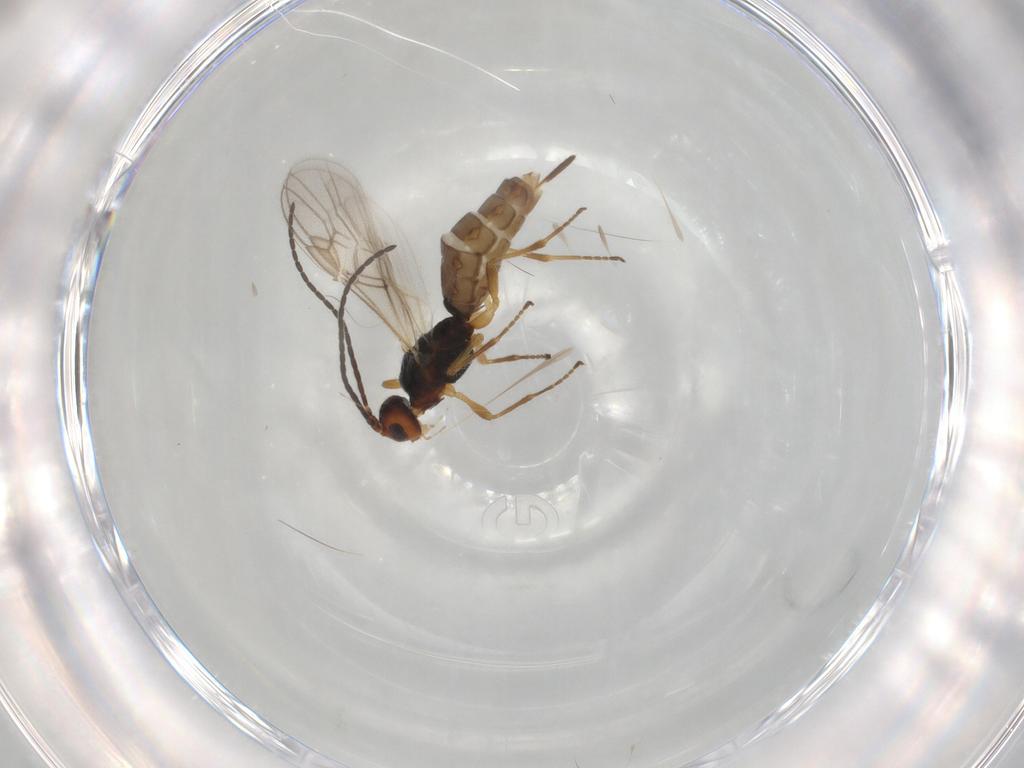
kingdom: Animalia
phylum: Arthropoda
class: Insecta
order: Hymenoptera
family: Braconidae
